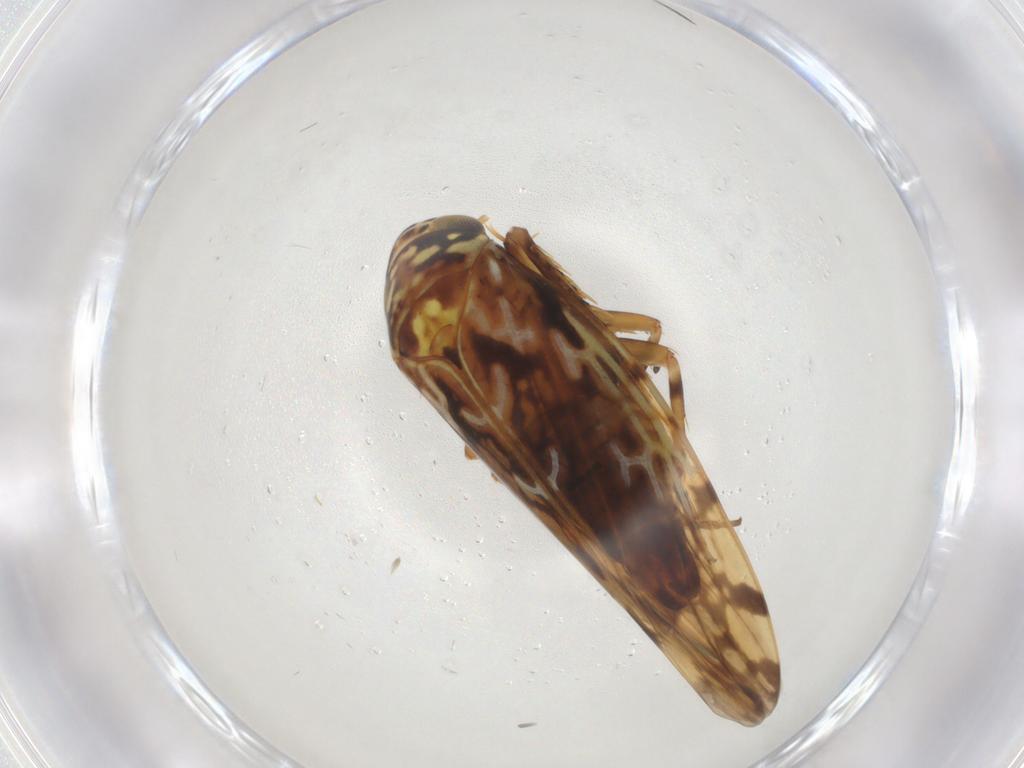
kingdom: Animalia
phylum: Arthropoda
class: Insecta
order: Hemiptera
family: Cicadellidae
